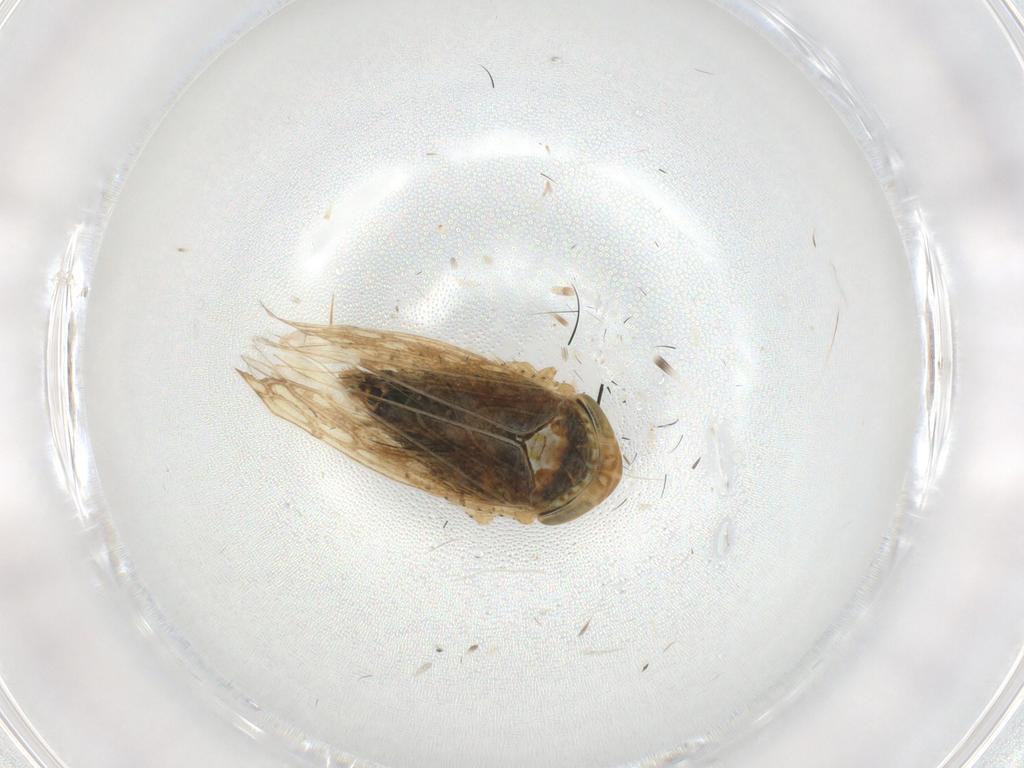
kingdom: Animalia
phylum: Arthropoda
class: Insecta
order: Hemiptera
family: Cicadellidae
